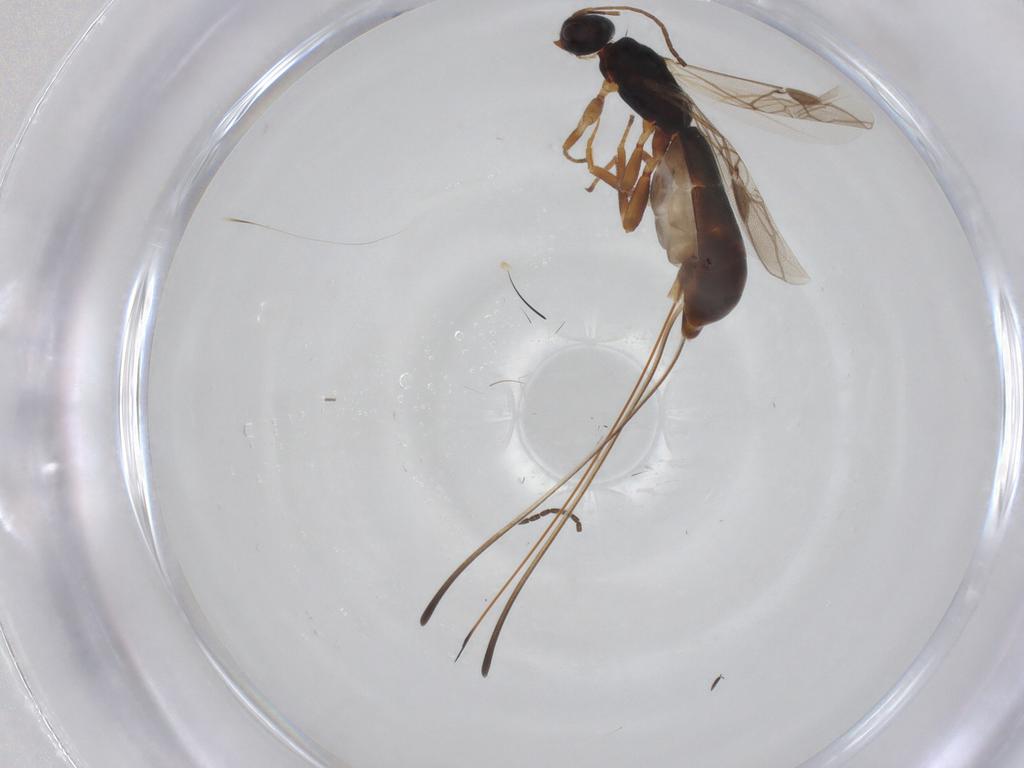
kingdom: Animalia
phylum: Arthropoda
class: Insecta
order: Hymenoptera
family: Braconidae
